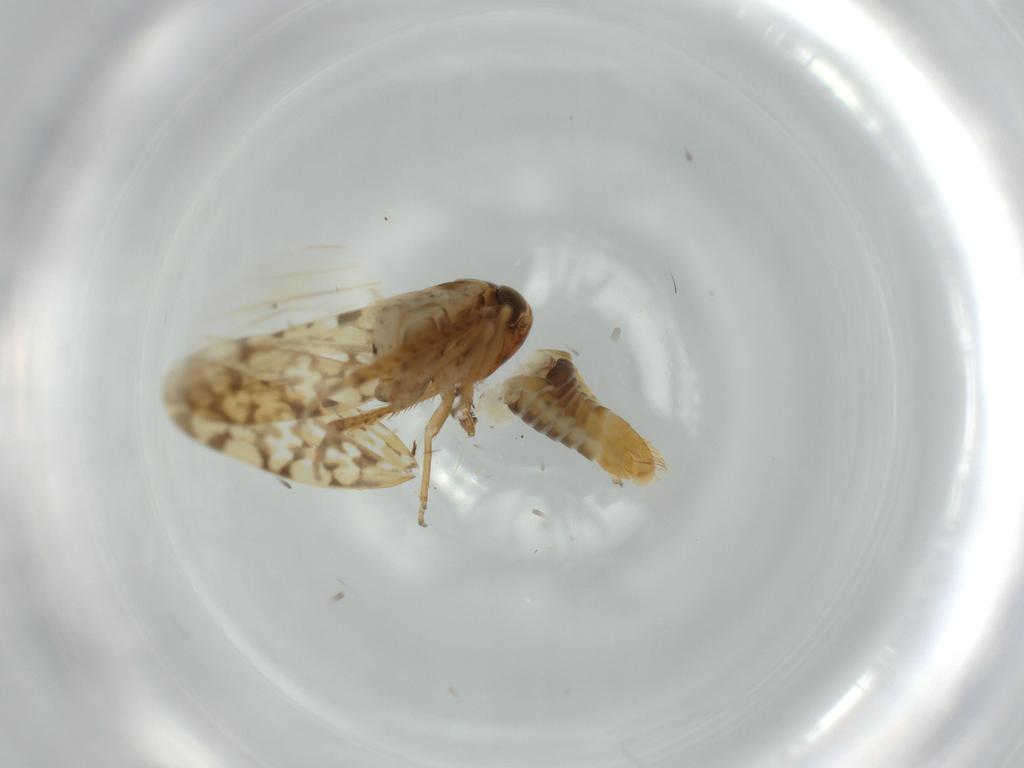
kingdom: Animalia
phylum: Arthropoda
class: Insecta
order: Hemiptera
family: Cicadellidae
